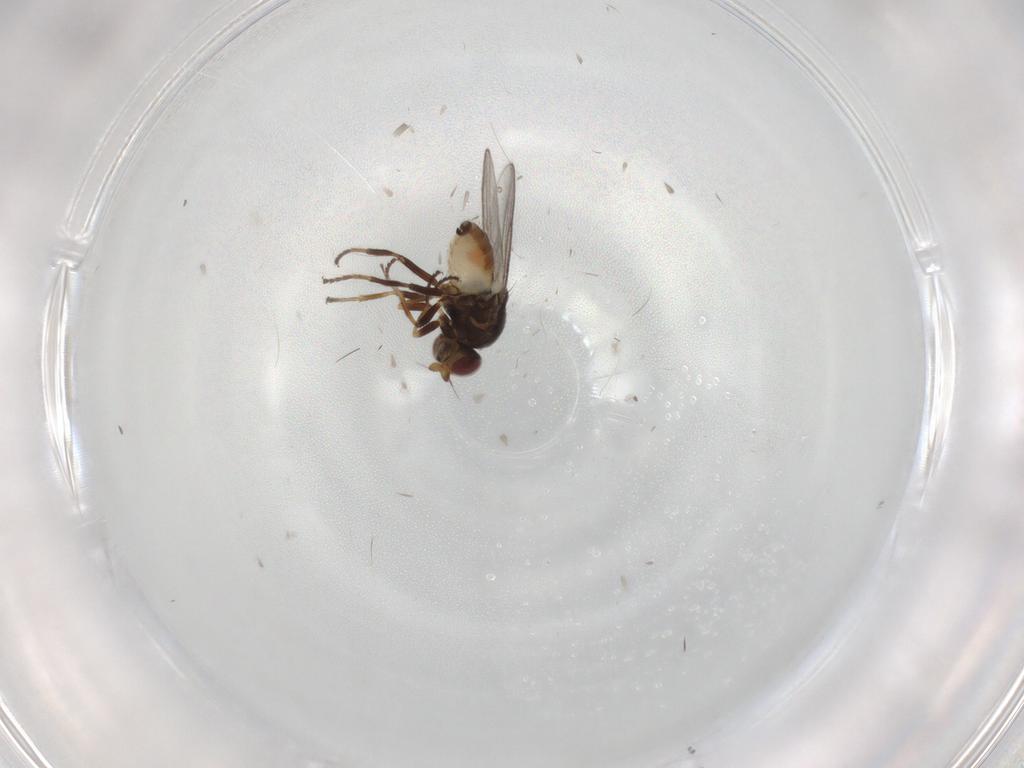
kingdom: Animalia
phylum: Arthropoda
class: Insecta
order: Diptera
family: Chloropidae
